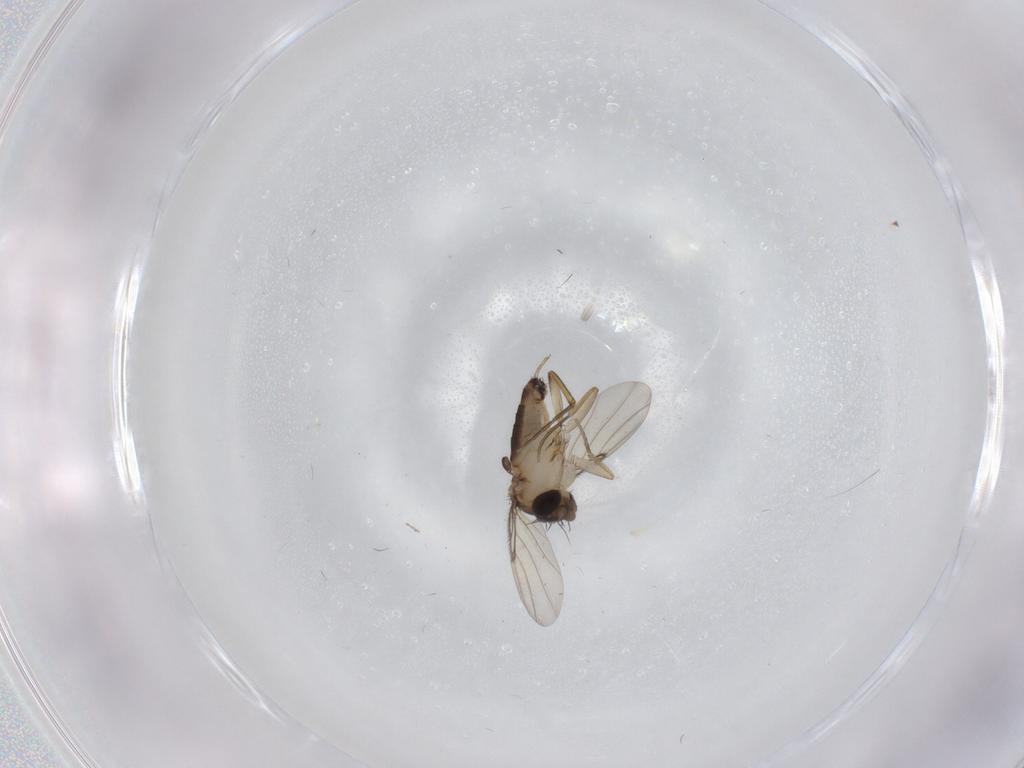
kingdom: Animalia
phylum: Arthropoda
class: Insecta
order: Diptera
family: Phoridae
